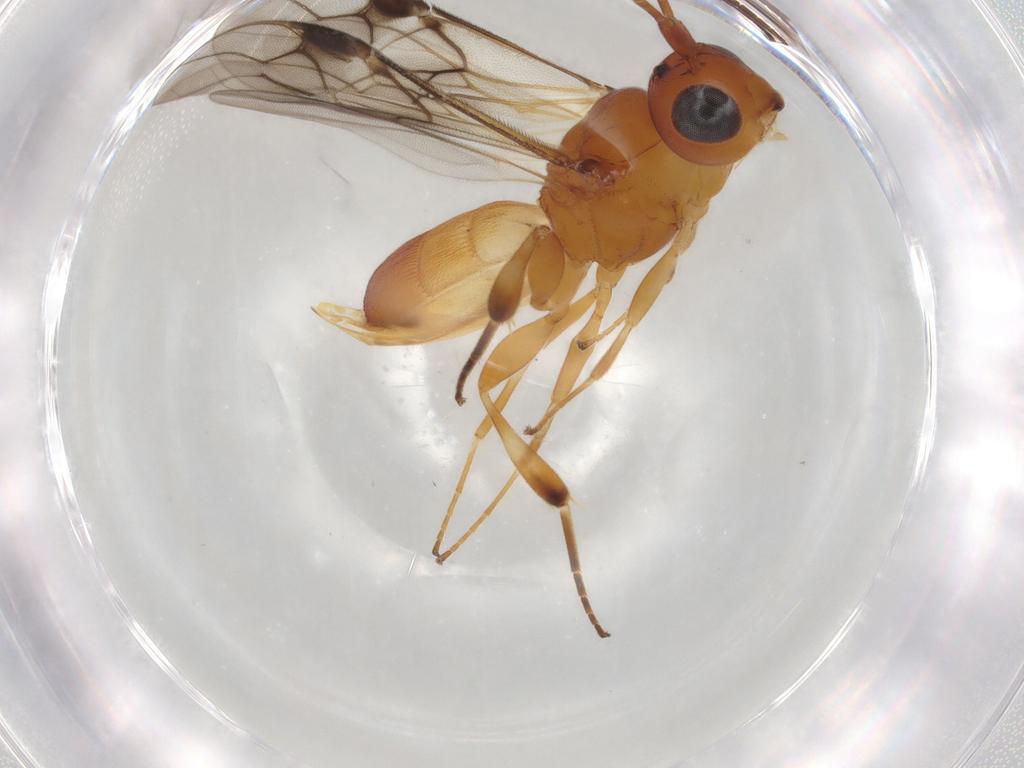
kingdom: Animalia
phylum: Arthropoda
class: Insecta
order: Hymenoptera
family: Braconidae
